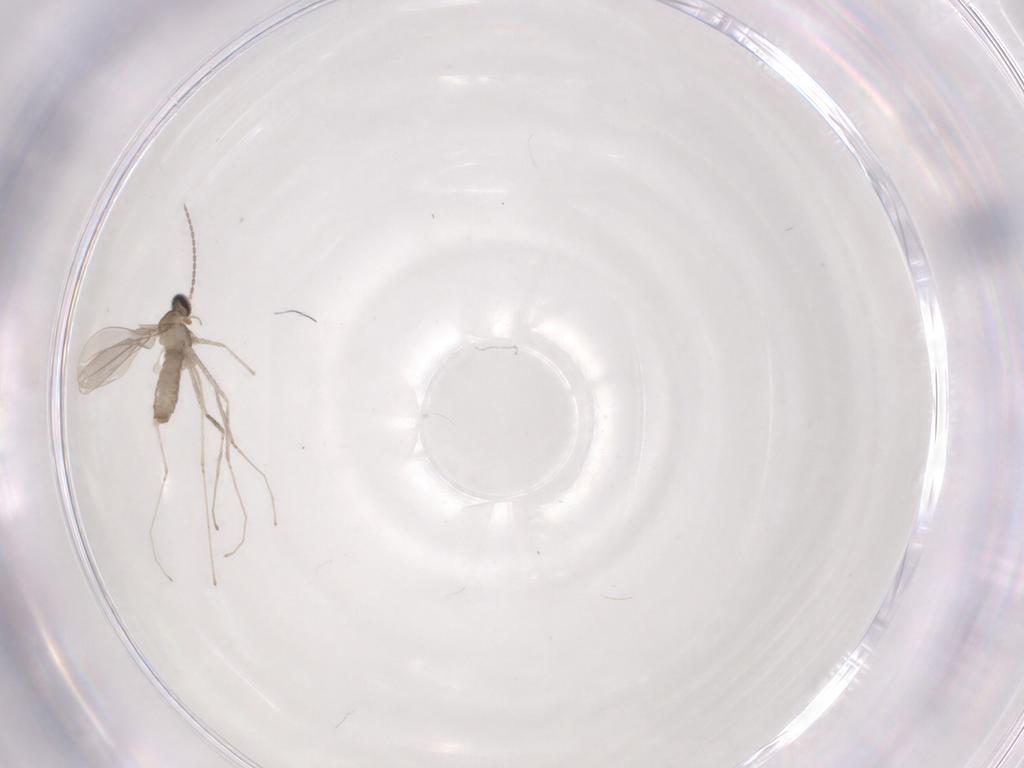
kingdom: Animalia
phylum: Arthropoda
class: Insecta
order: Diptera
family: Cecidomyiidae
